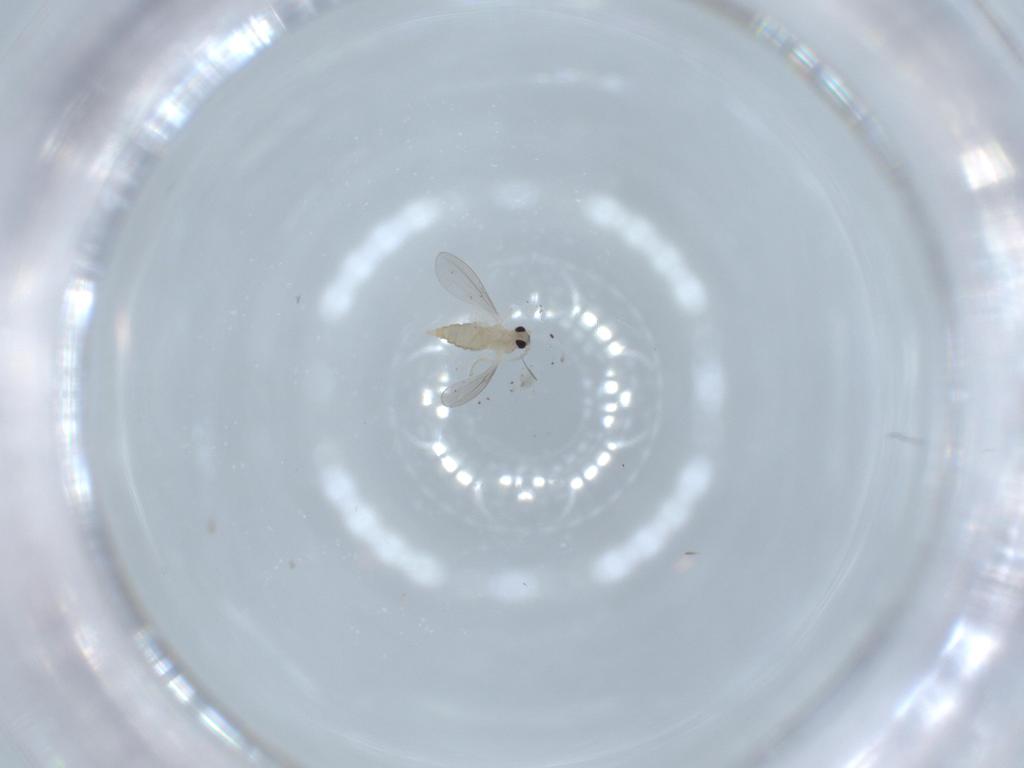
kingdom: Animalia
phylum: Arthropoda
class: Insecta
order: Diptera
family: Cecidomyiidae
